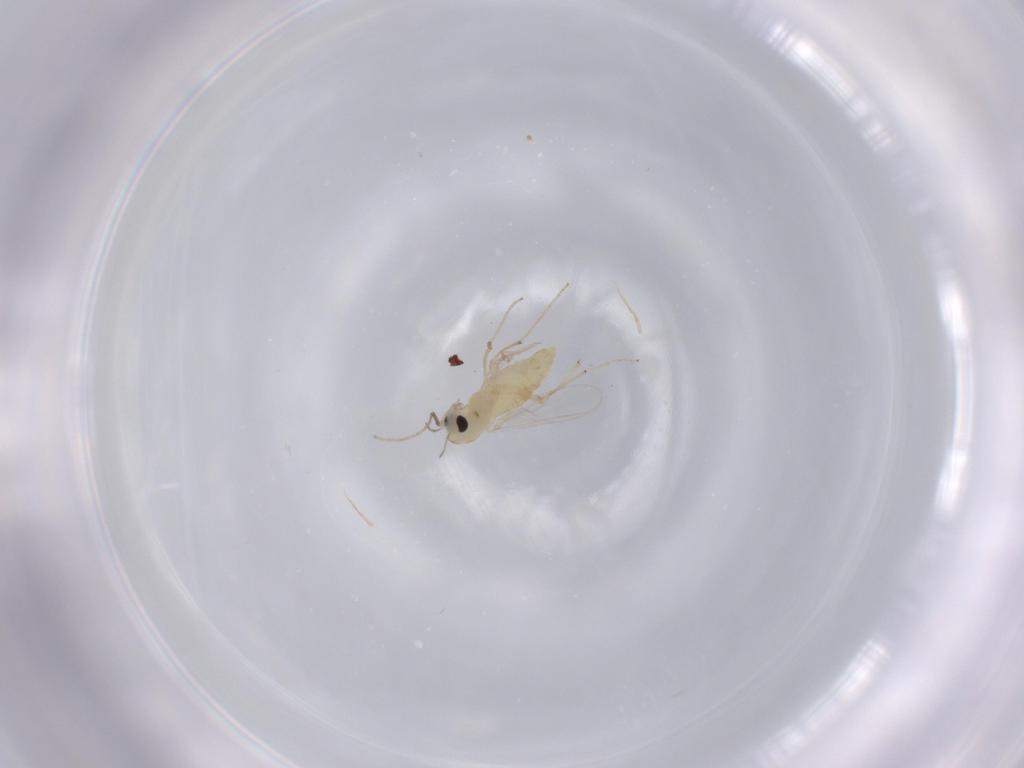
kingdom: Animalia
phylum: Arthropoda
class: Insecta
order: Diptera
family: Chironomidae
